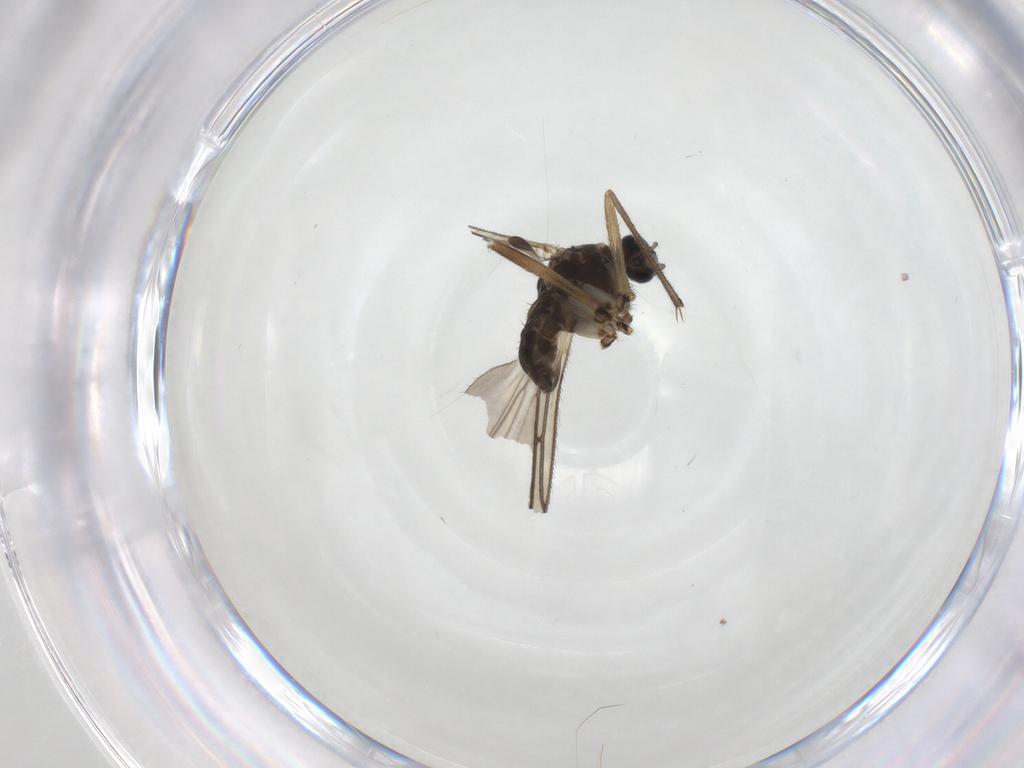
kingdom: Animalia
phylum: Arthropoda
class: Insecta
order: Diptera
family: Sciaridae
